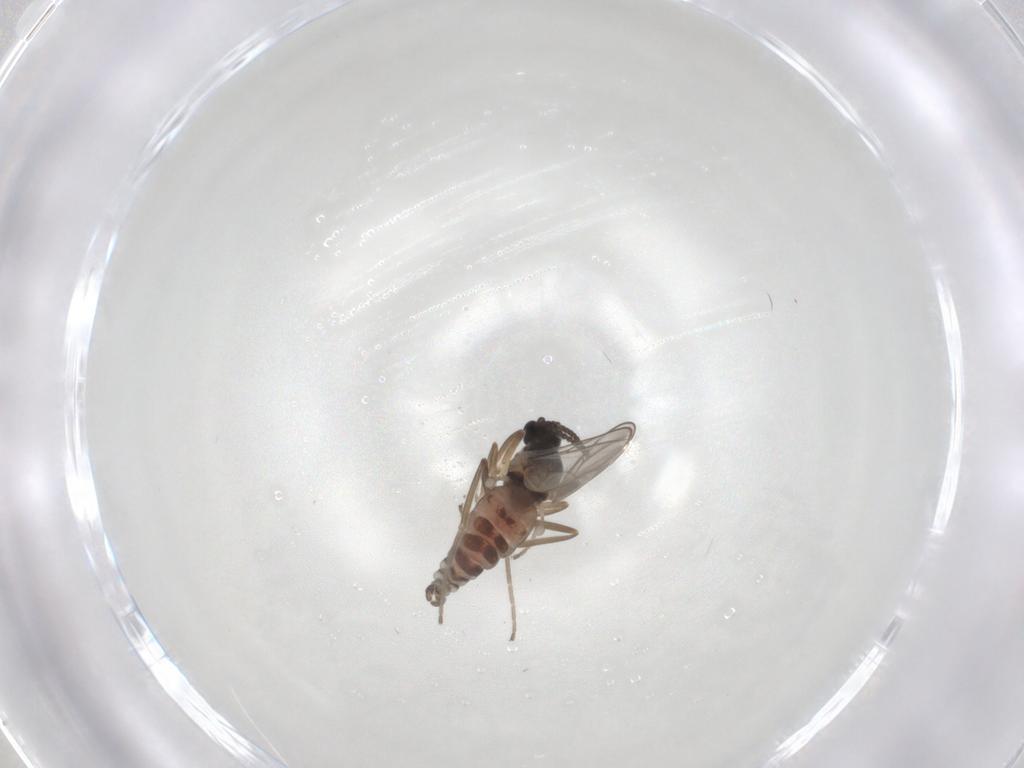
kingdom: Animalia
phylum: Arthropoda
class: Insecta
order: Diptera
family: Cecidomyiidae
